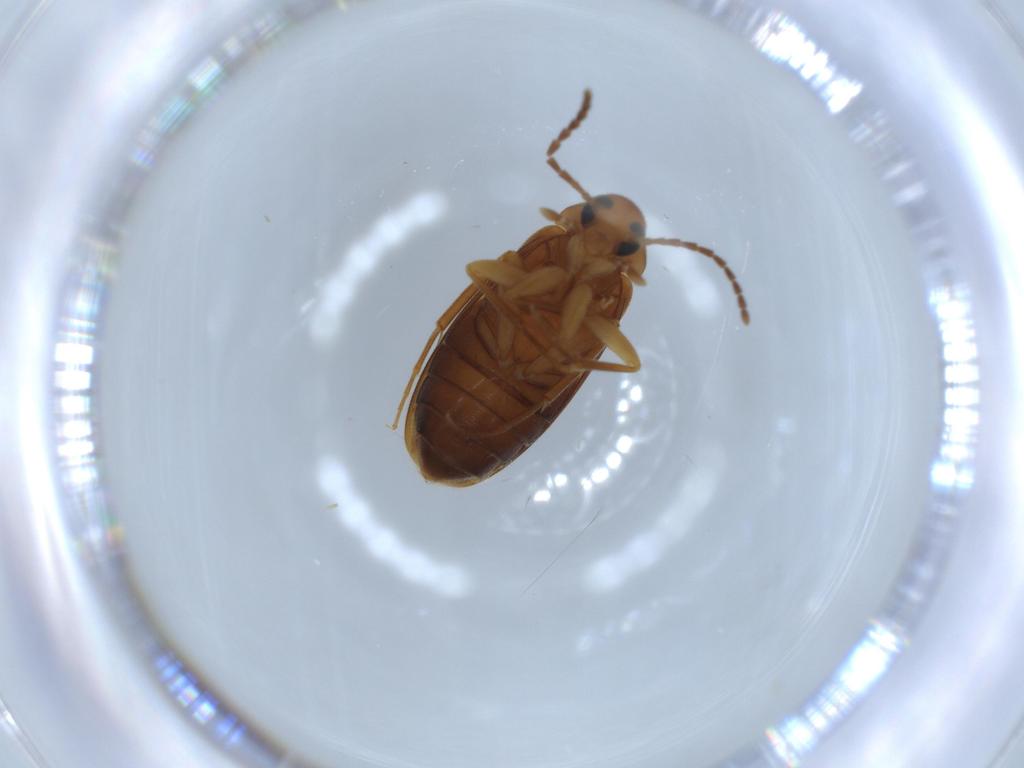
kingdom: Animalia
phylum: Arthropoda
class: Insecta
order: Coleoptera
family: Scraptiidae
